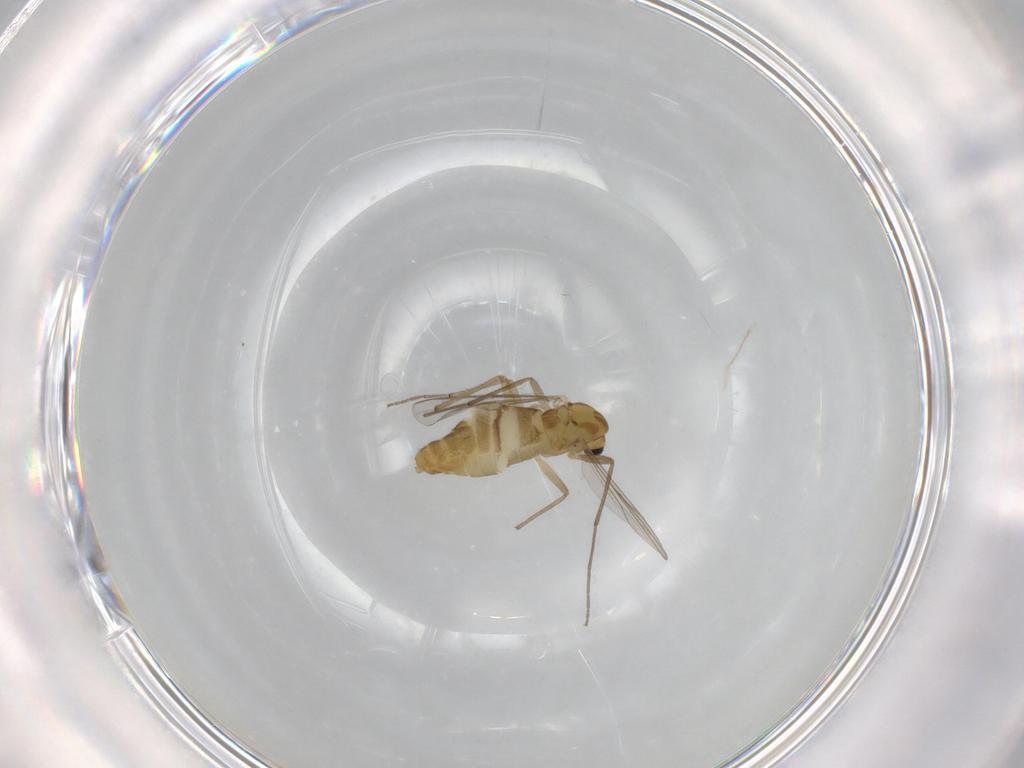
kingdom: Animalia
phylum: Arthropoda
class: Insecta
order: Diptera
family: Chironomidae
